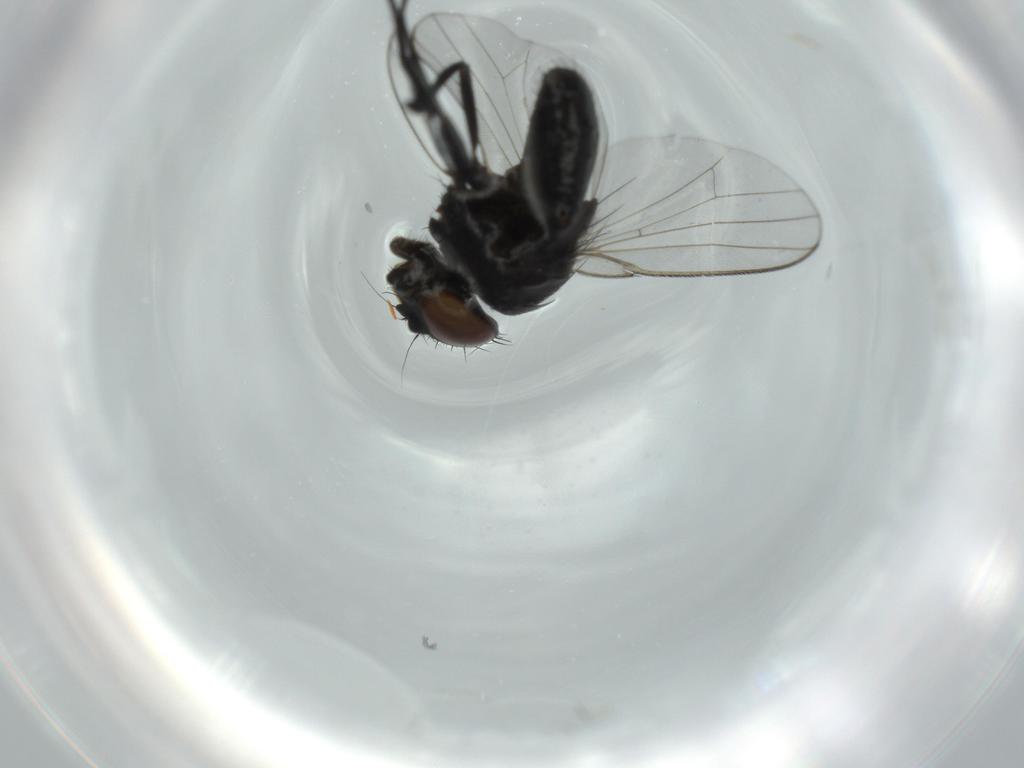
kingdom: Animalia
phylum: Arthropoda
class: Insecta
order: Diptera
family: Milichiidae
